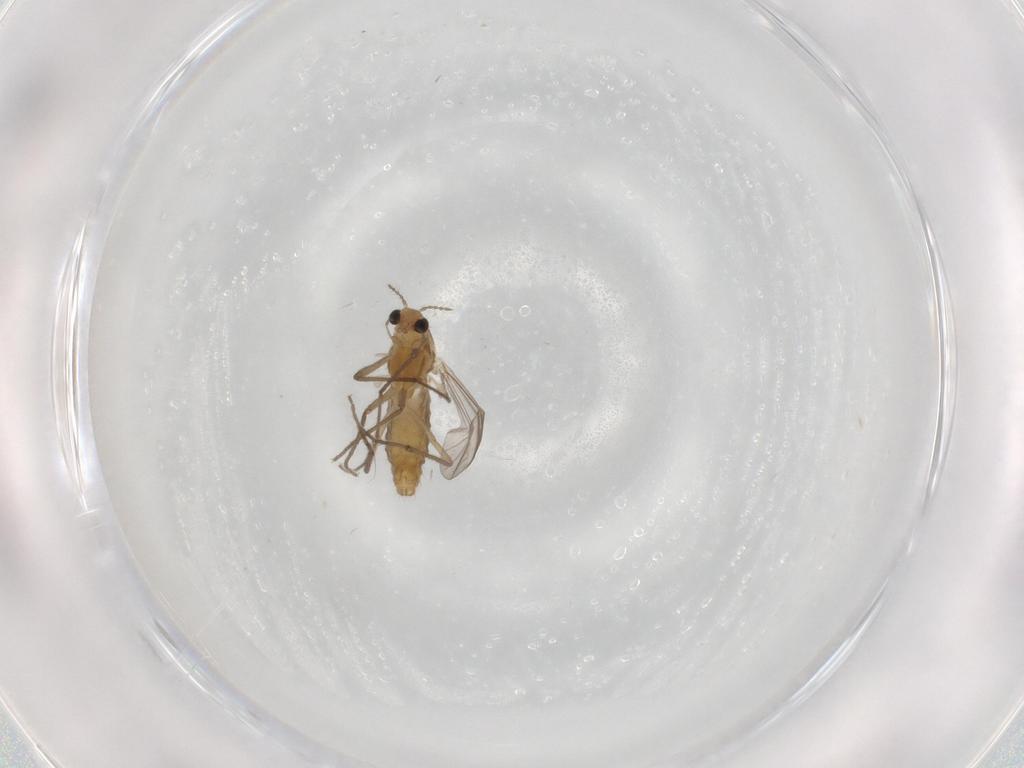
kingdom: Animalia
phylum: Arthropoda
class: Insecta
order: Diptera
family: Chironomidae
